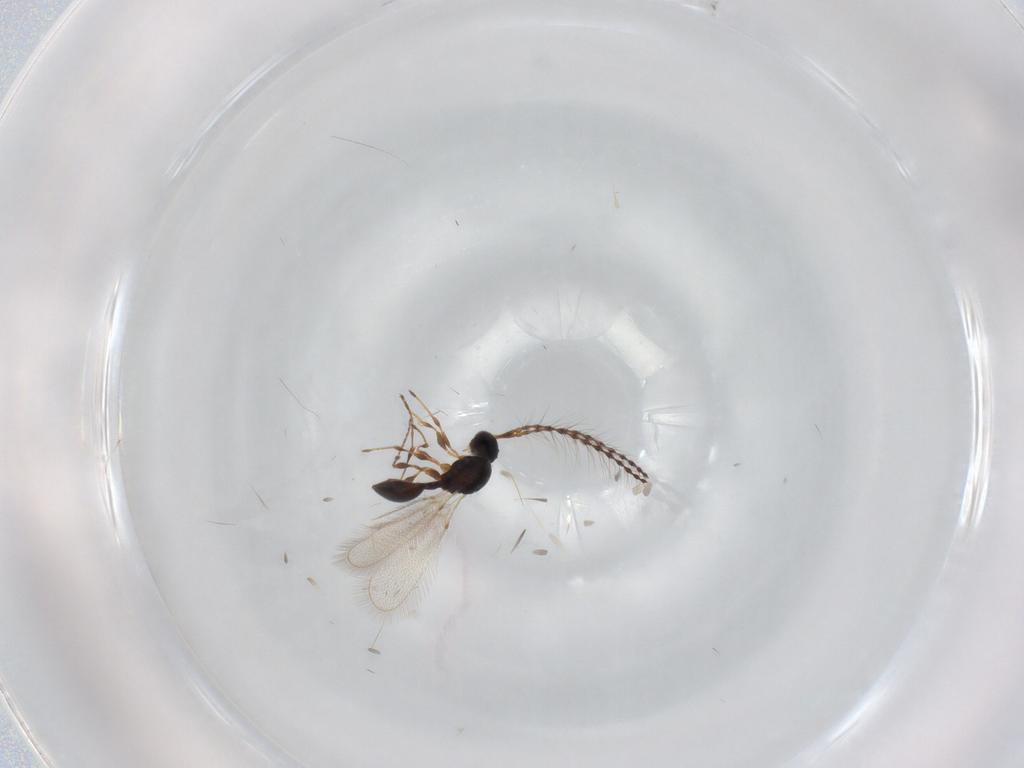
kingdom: Animalia
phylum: Arthropoda
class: Insecta
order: Hymenoptera
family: Diapriidae
